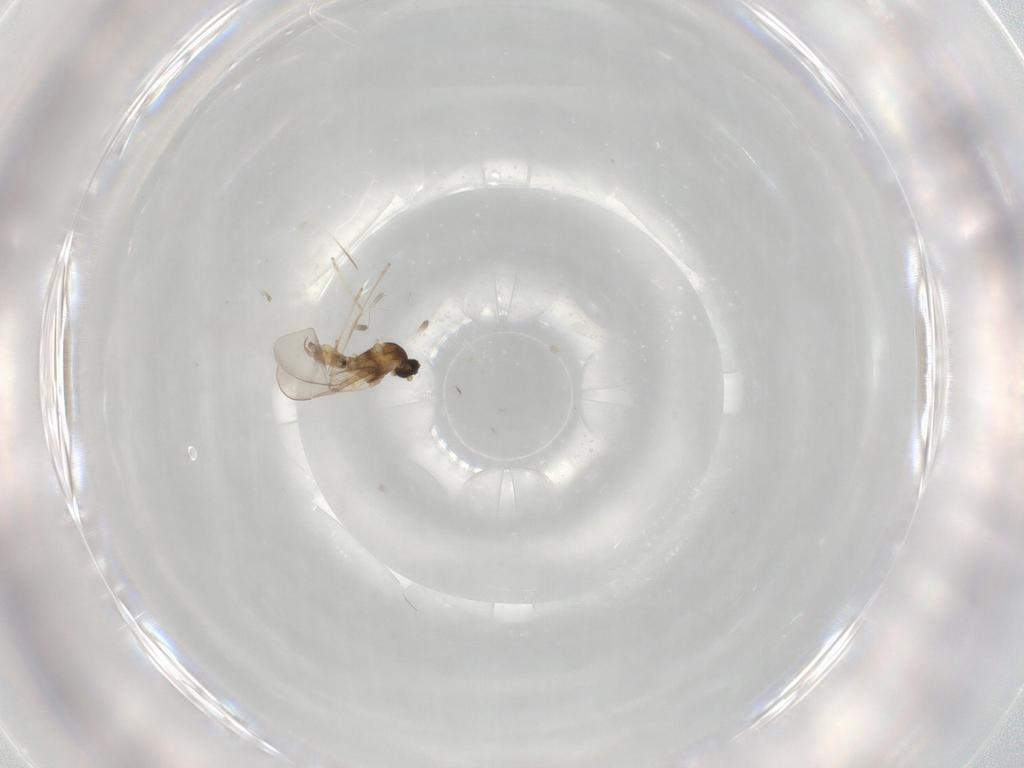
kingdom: Animalia
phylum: Arthropoda
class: Insecta
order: Diptera
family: Cecidomyiidae
